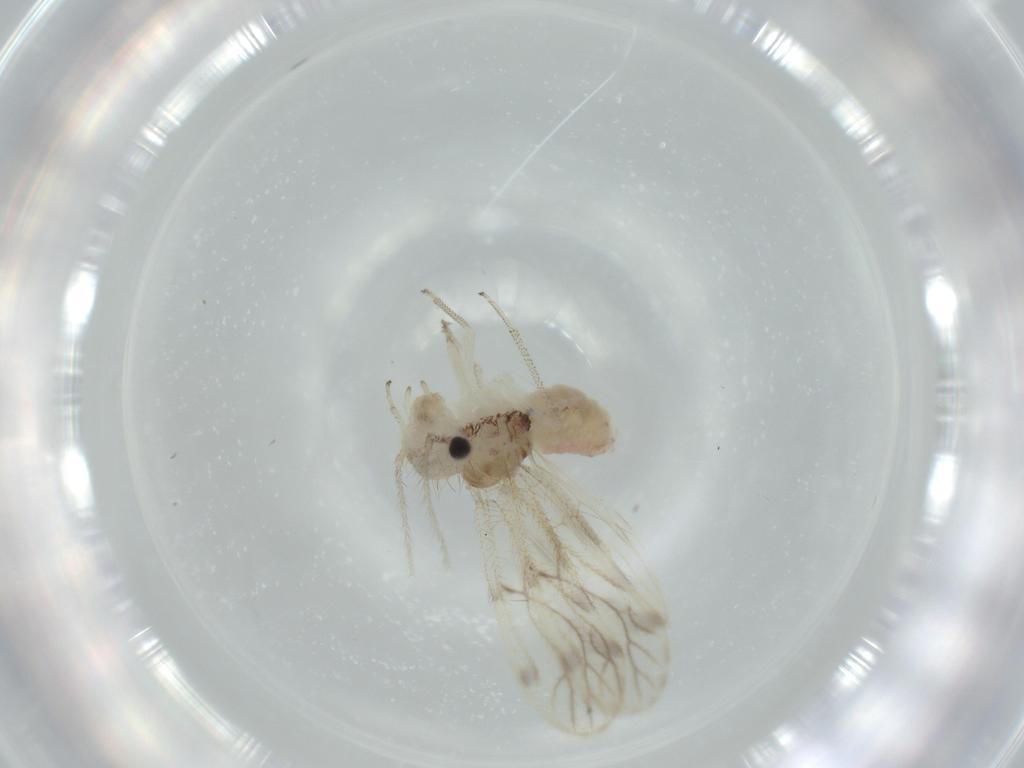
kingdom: Animalia
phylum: Arthropoda
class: Insecta
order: Psocodea
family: Pseudocaeciliidae
